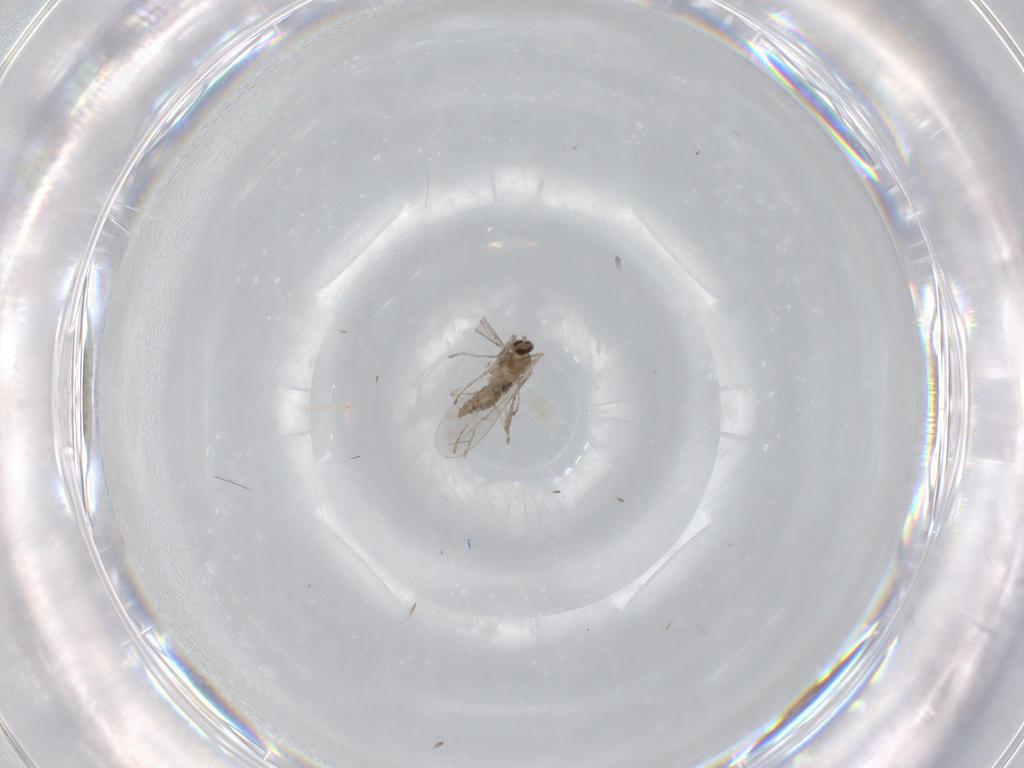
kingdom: Animalia
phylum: Arthropoda
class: Insecta
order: Diptera
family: Cecidomyiidae
